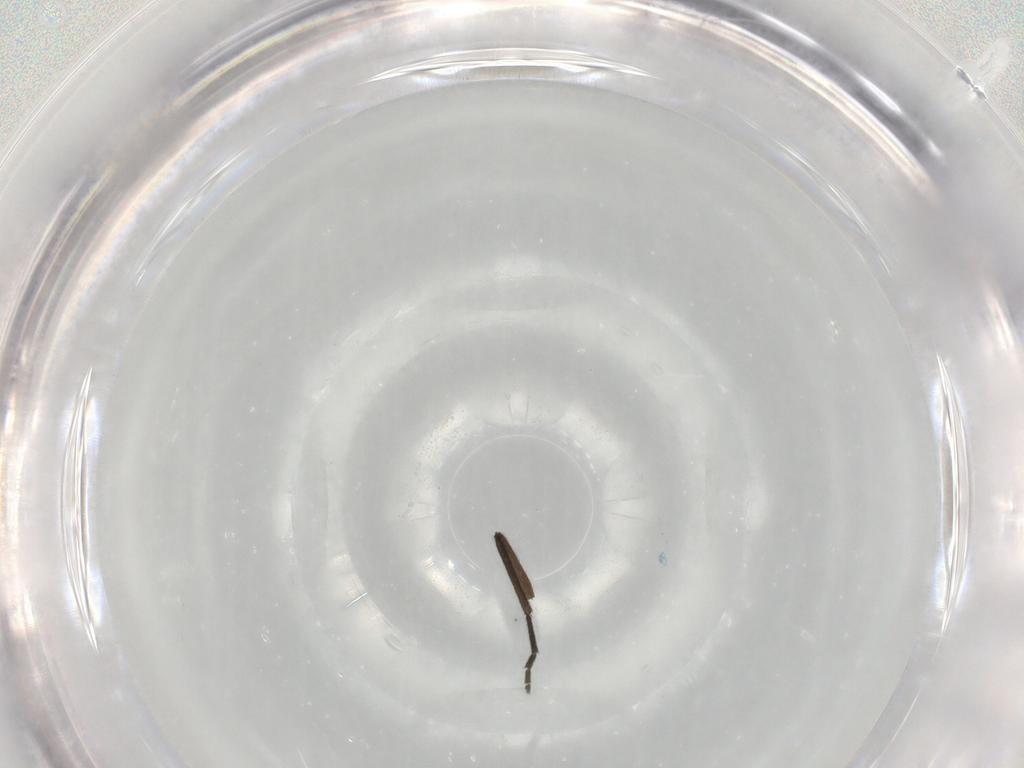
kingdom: Animalia
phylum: Arthropoda
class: Insecta
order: Diptera
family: Chironomidae
